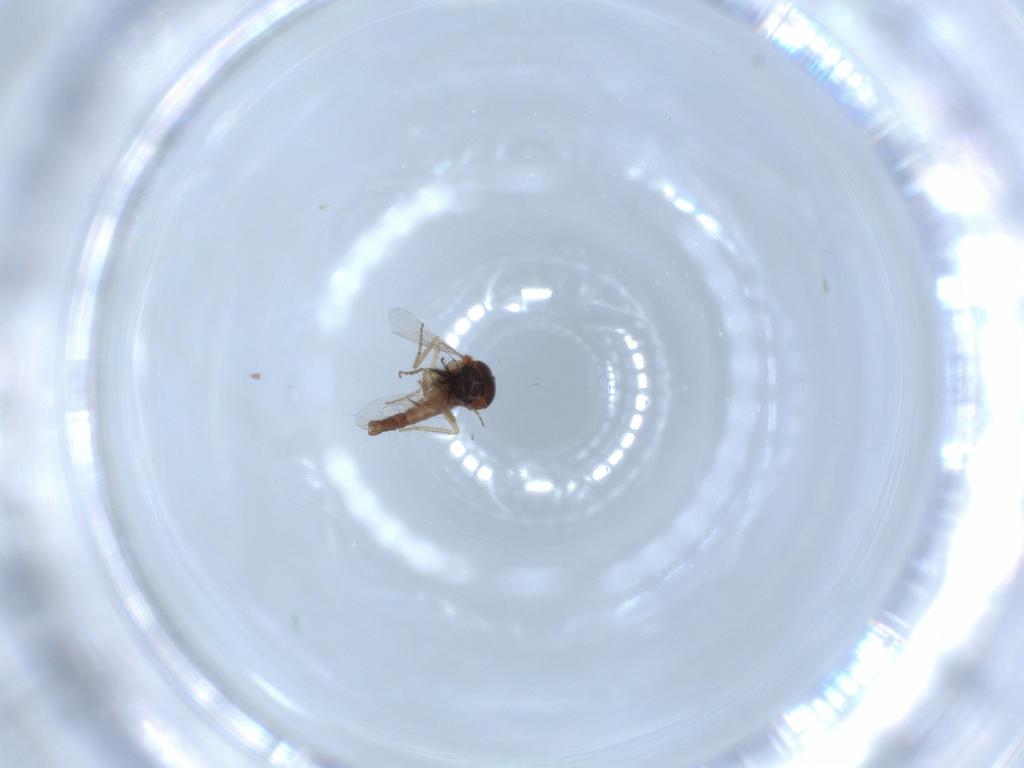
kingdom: Animalia
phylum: Arthropoda
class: Insecta
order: Diptera
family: Ceratopogonidae
